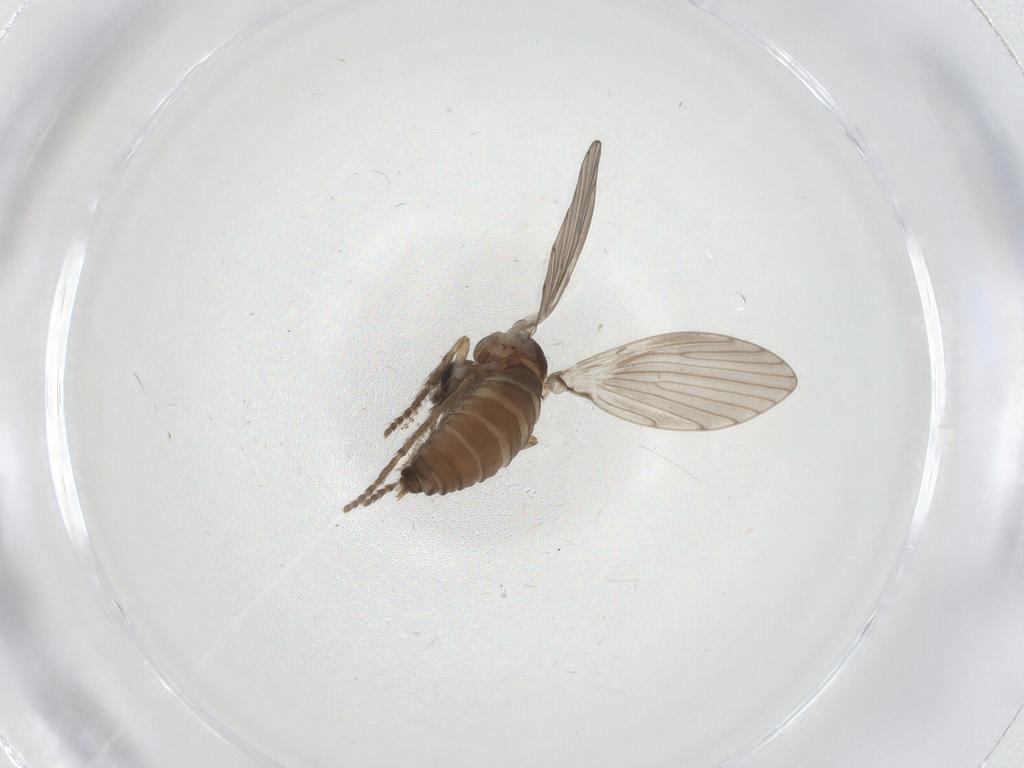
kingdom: Animalia
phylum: Arthropoda
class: Insecta
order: Diptera
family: Psychodidae
